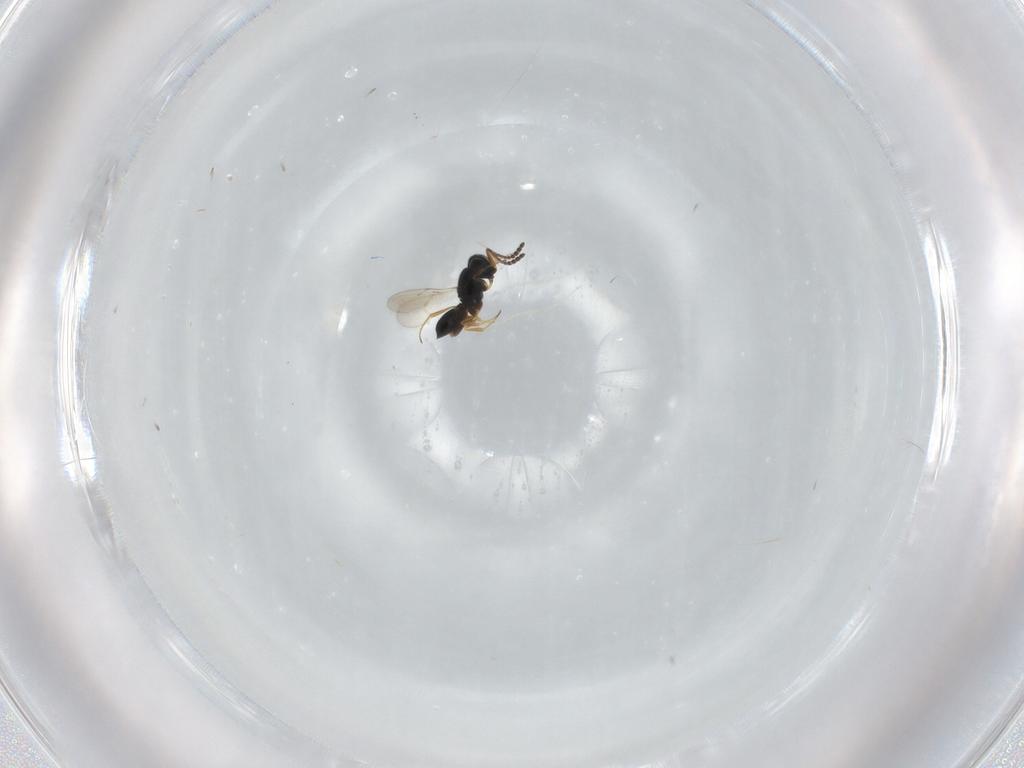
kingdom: Animalia
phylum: Arthropoda
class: Insecta
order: Hymenoptera
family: Scelionidae
